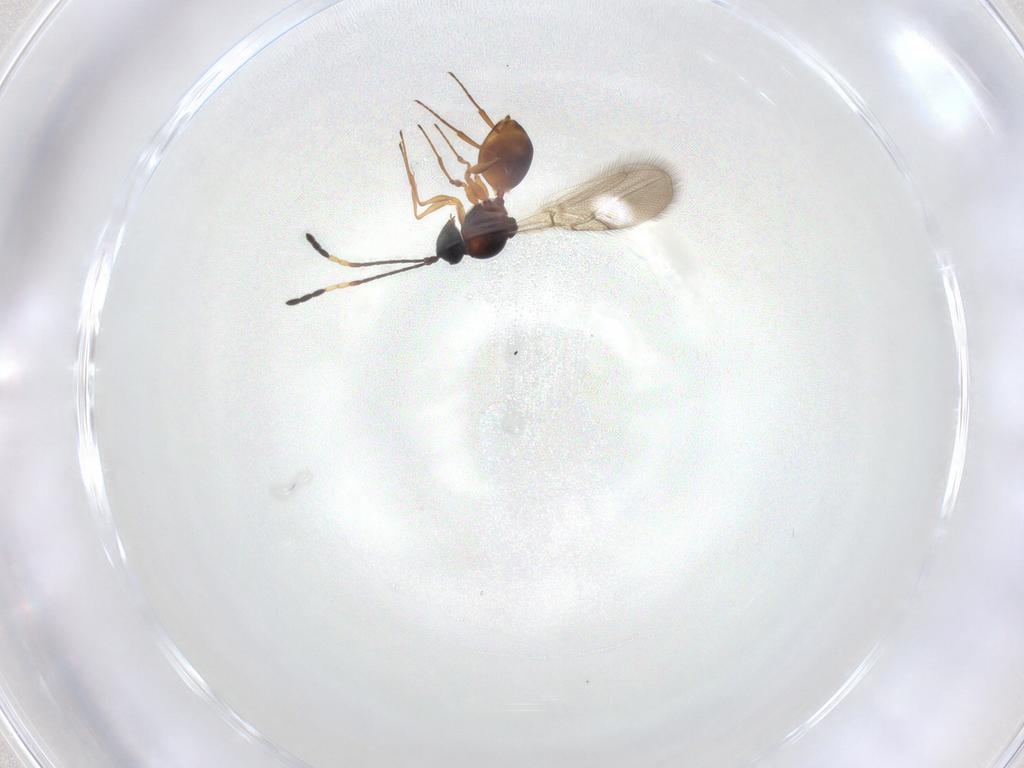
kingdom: Animalia
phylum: Arthropoda
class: Insecta
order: Hymenoptera
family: Figitidae
